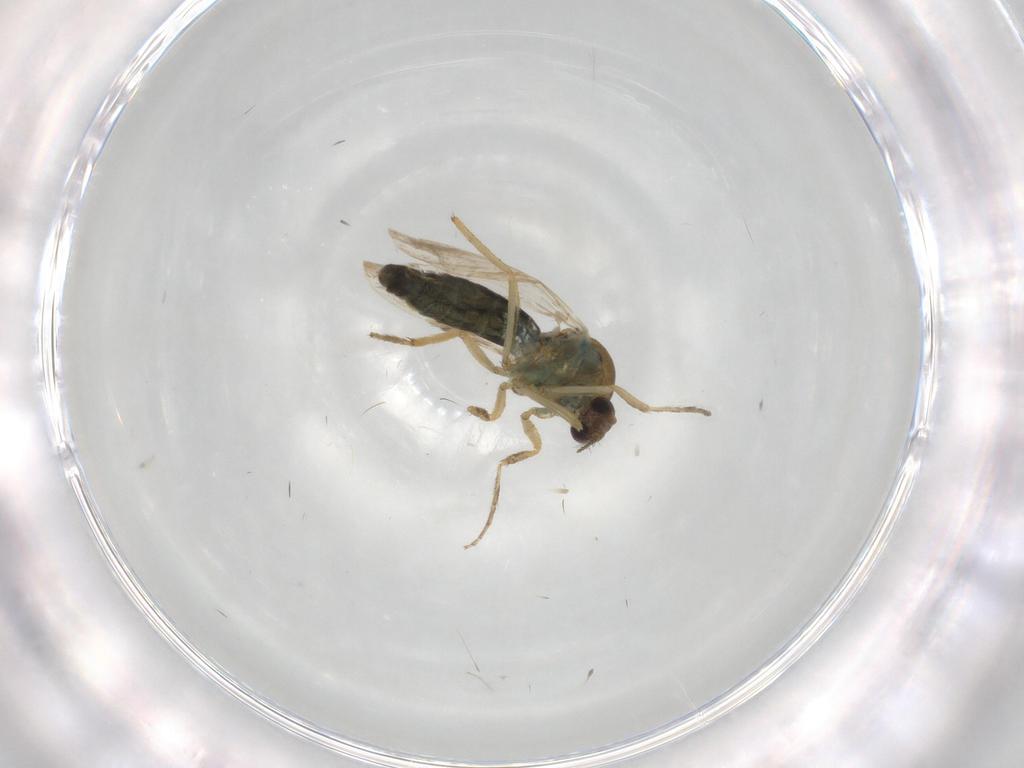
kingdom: Animalia
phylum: Arthropoda
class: Insecta
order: Diptera
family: Ceratopogonidae
